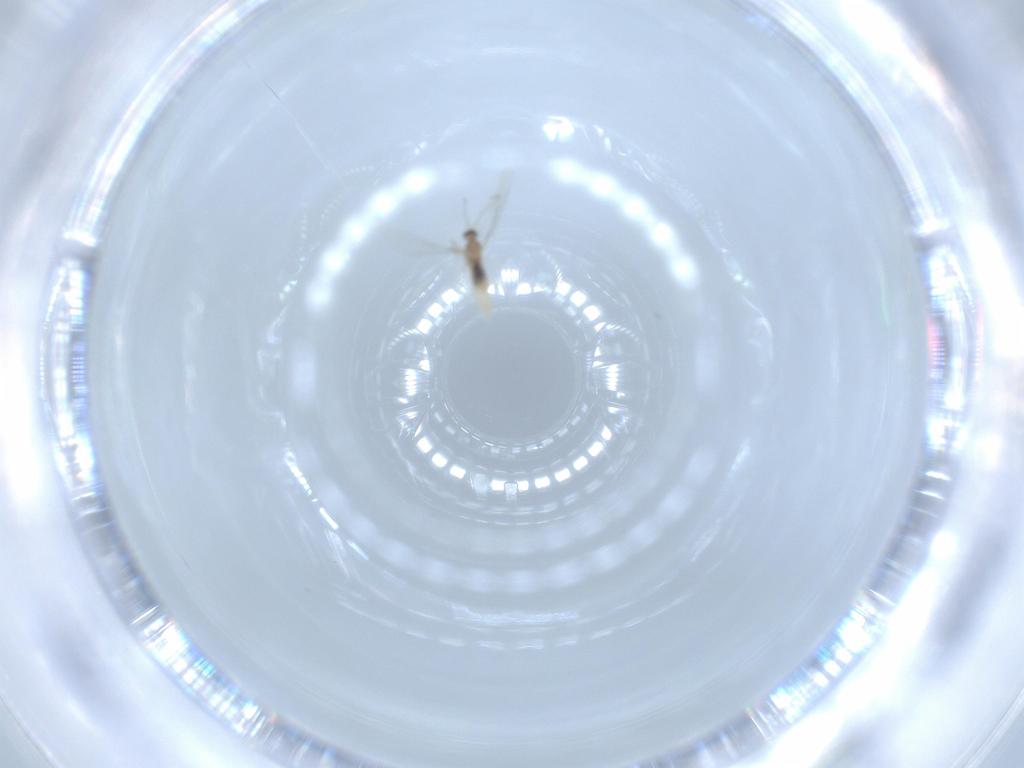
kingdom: Animalia
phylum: Arthropoda
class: Insecta
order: Diptera
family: Cecidomyiidae
